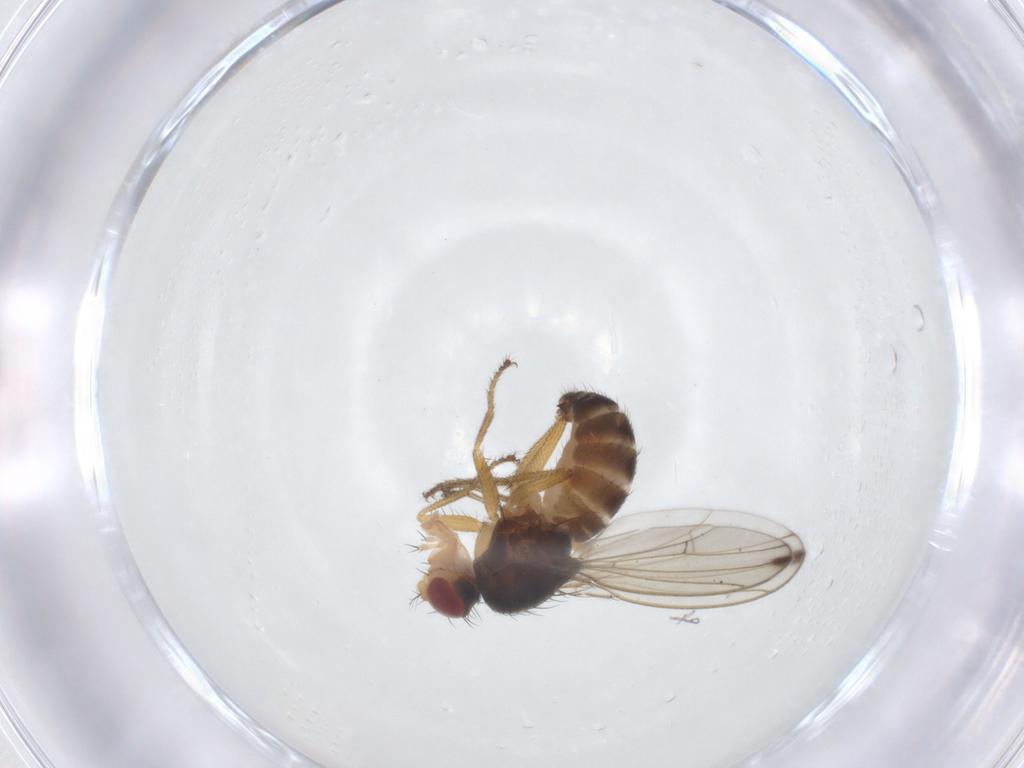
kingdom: Animalia
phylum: Arthropoda
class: Insecta
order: Diptera
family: Drosophilidae
